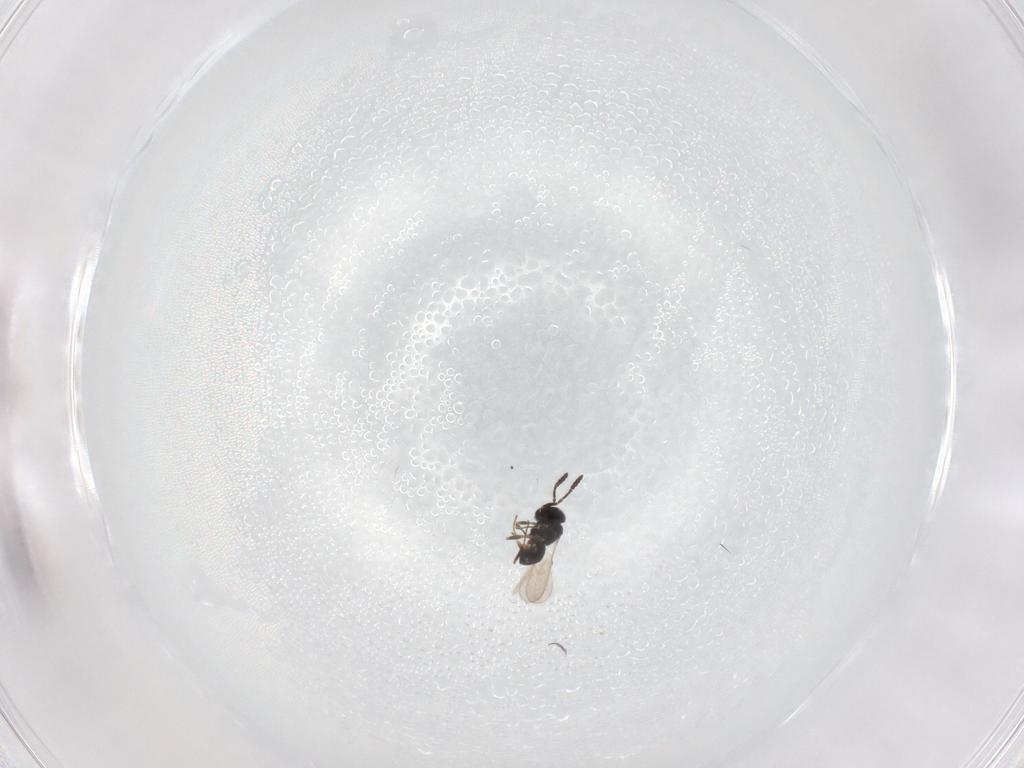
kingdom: Animalia
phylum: Arthropoda
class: Insecta
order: Hymenoptera
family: Scelionidae
